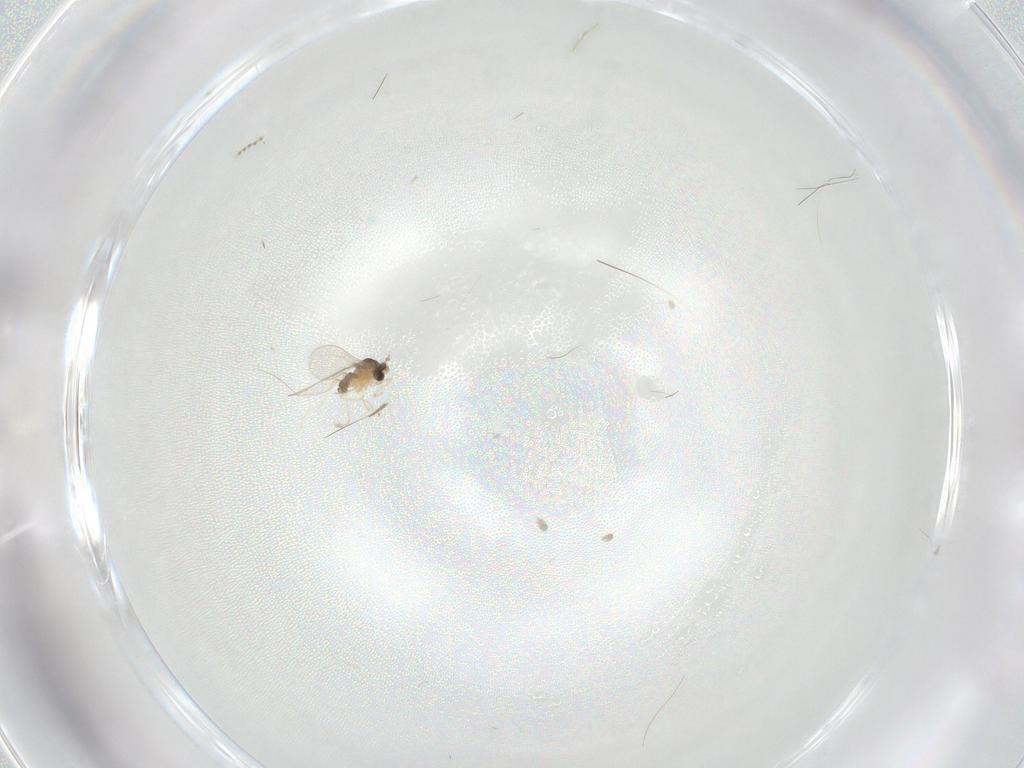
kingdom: Animalia
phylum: Arthropoda
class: Insecta
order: Diptera
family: Cecidomyiidae
